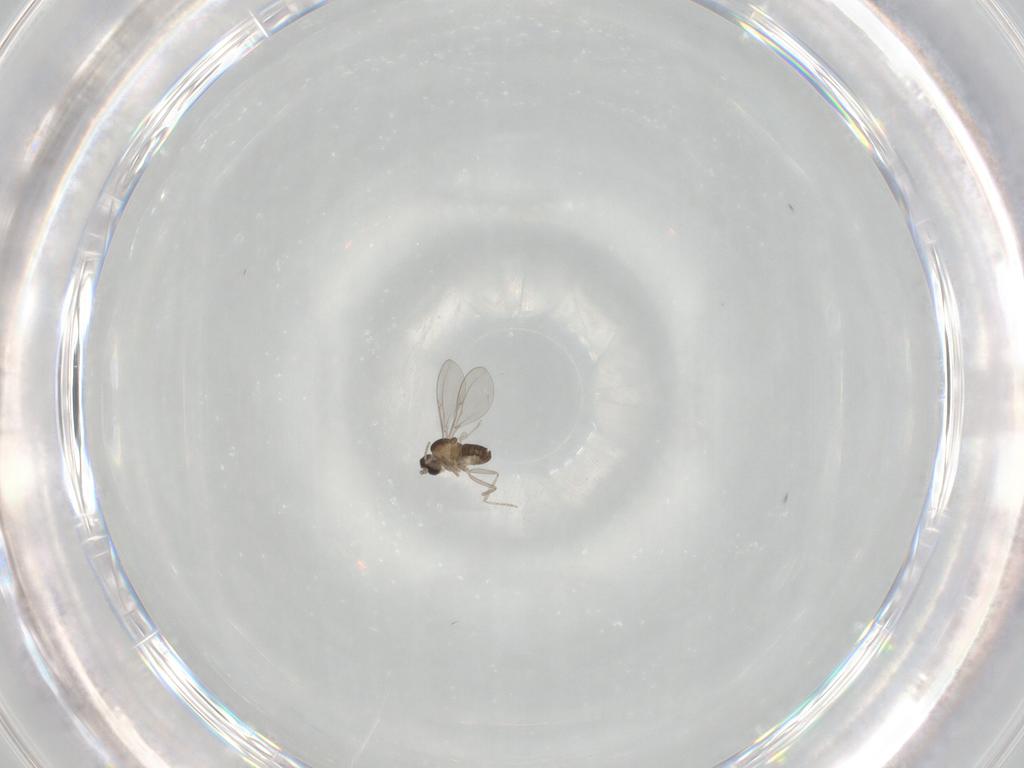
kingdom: Animalia
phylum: Arthropoda
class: Insecta
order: Diptera
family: Cecidomyiidae
